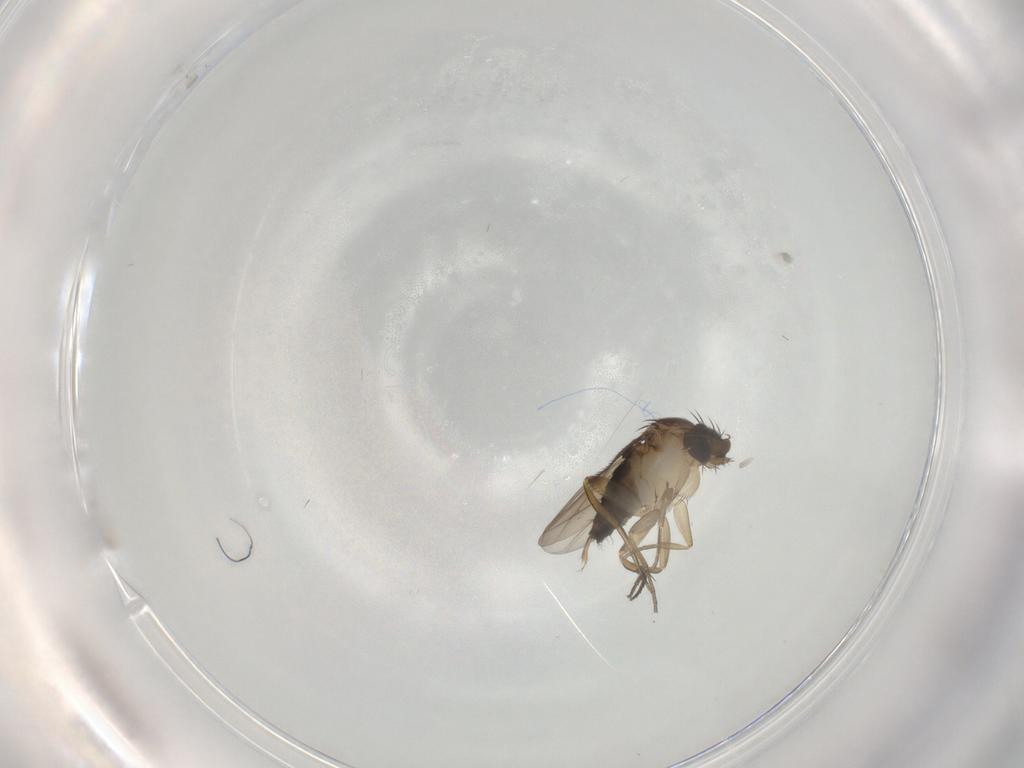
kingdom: Animalia
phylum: Arthropoda
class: Insecta
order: Diptera
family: Phoridae
